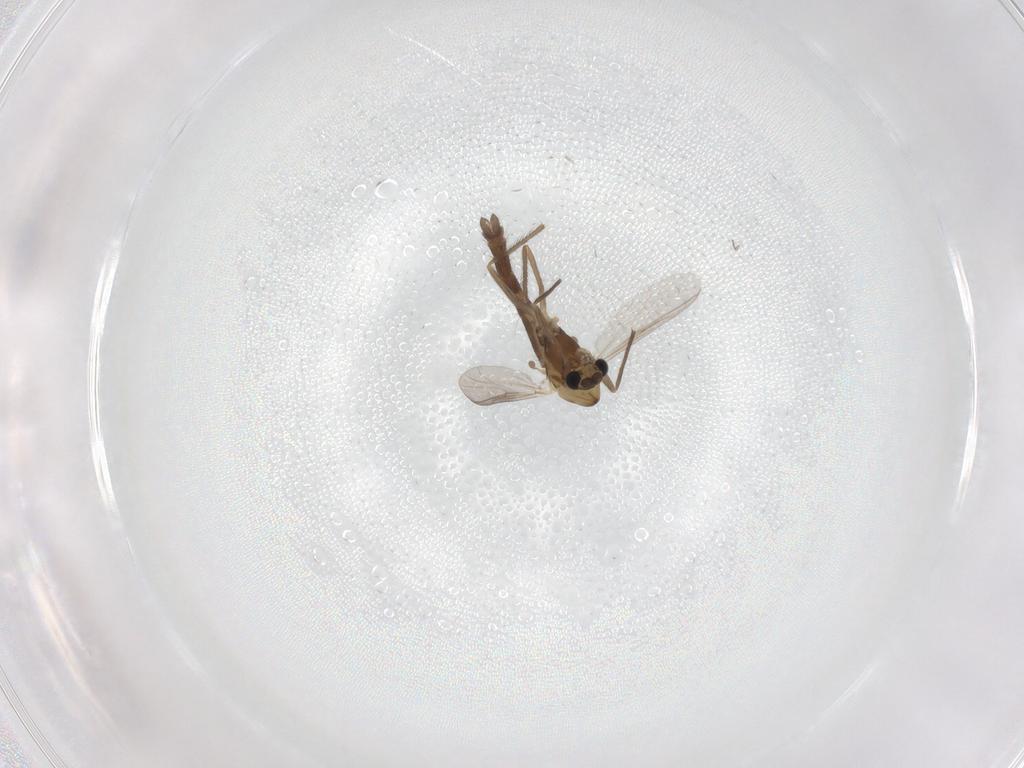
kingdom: Animalia
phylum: Arthropoda
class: Insecta
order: Diptera
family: Chironomidae
